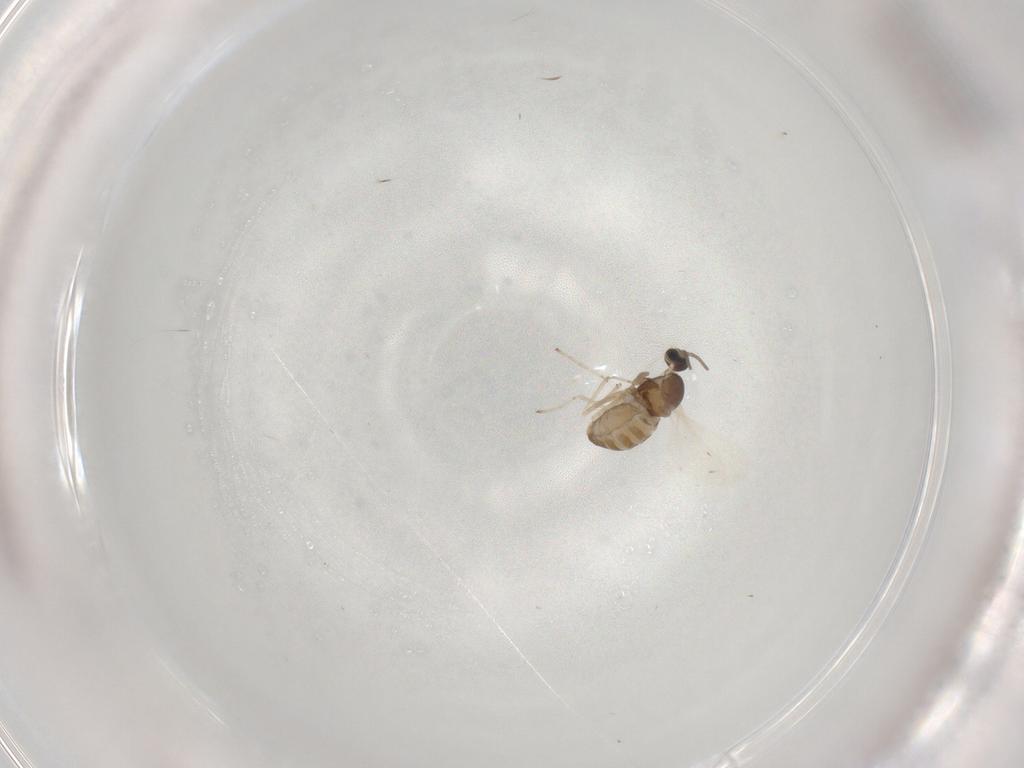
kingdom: Animalia
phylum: Arthropoda
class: Insecta
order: Diptera
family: Cecidomyiidae
